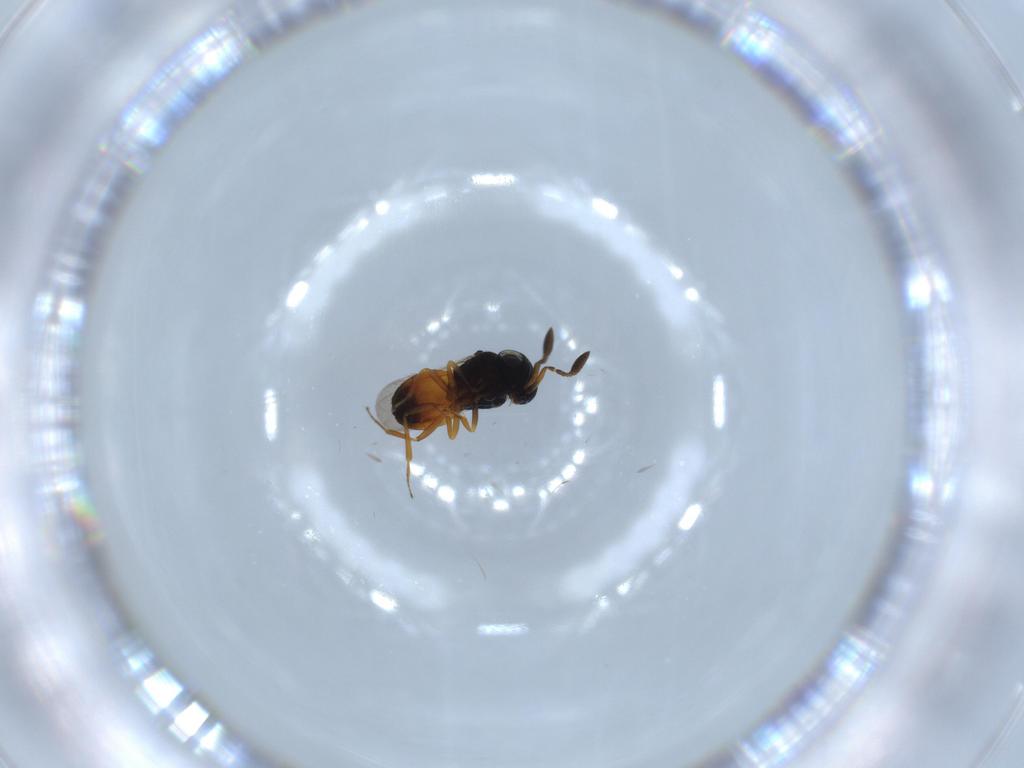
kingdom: Animalia
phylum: Arthropoda
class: Insecta
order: Hymenoptera
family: Scelionidae
